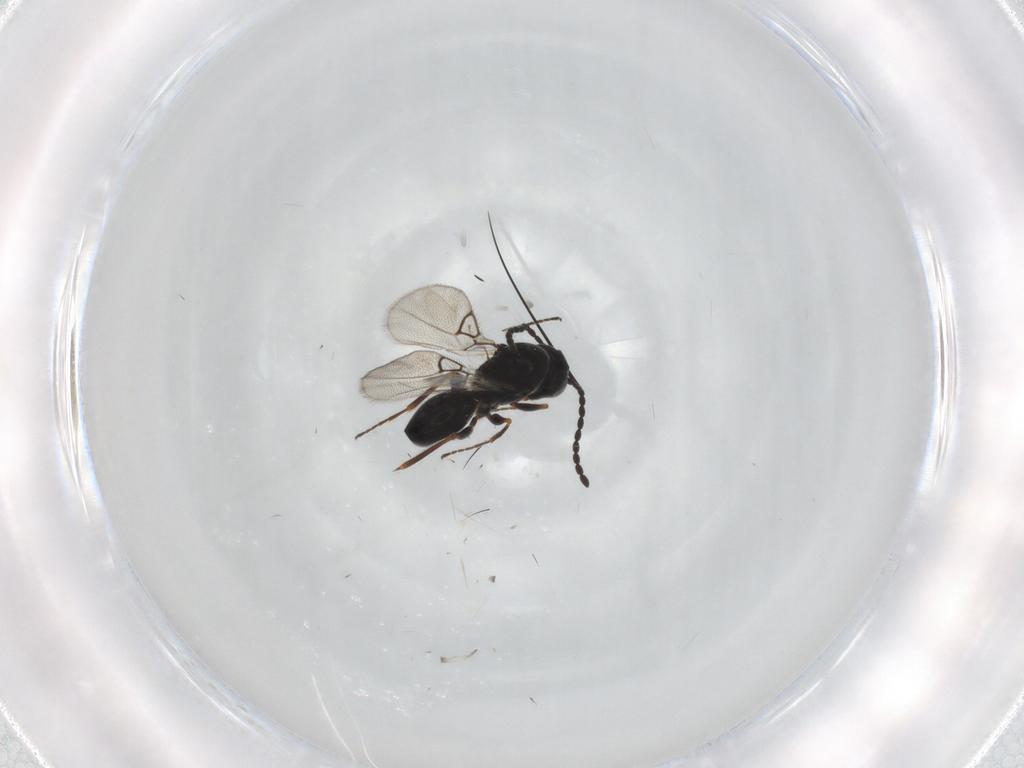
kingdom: Animalia
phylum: Arthropoda
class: Insecta
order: Hymenoptera
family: Figitidae
